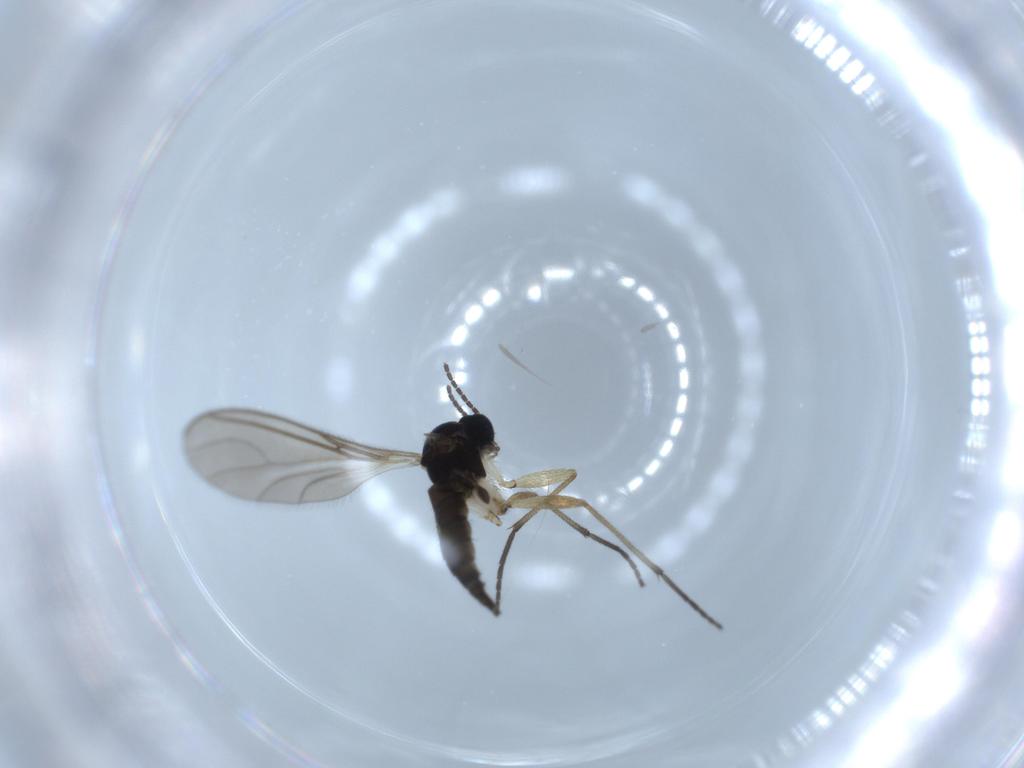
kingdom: Animalia
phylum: Arthropoda
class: Insecta
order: Diptera
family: Sciaridae
